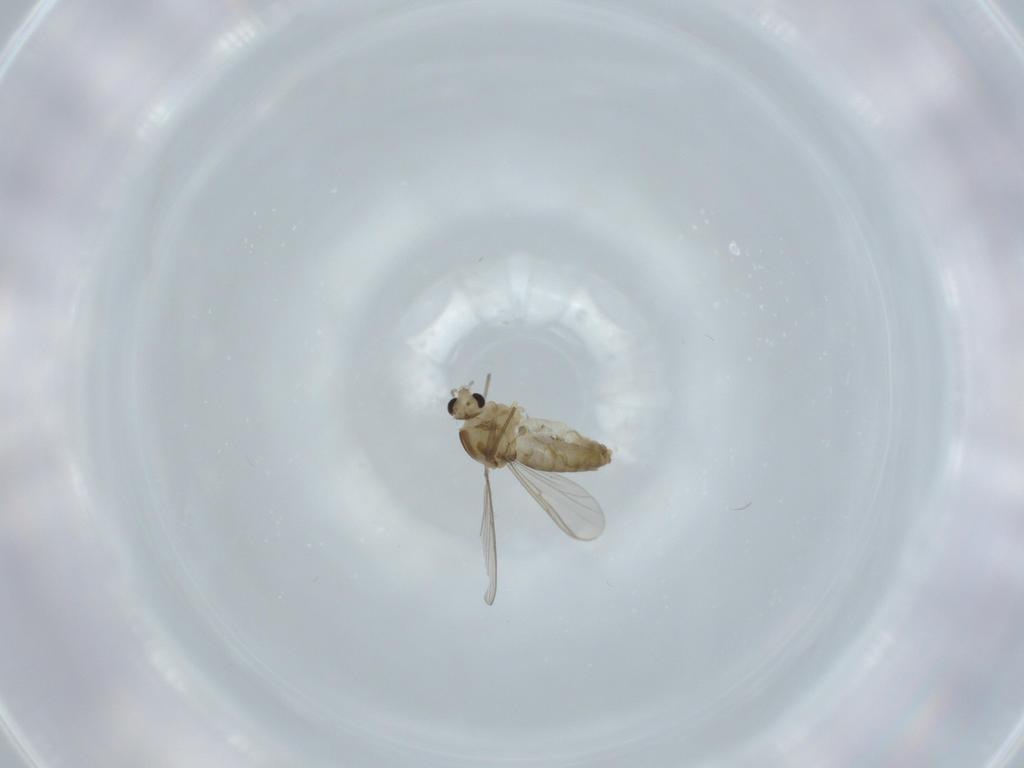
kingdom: Animalia
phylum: Arthropoda
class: Insecta
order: Diptera
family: Chironomidae
